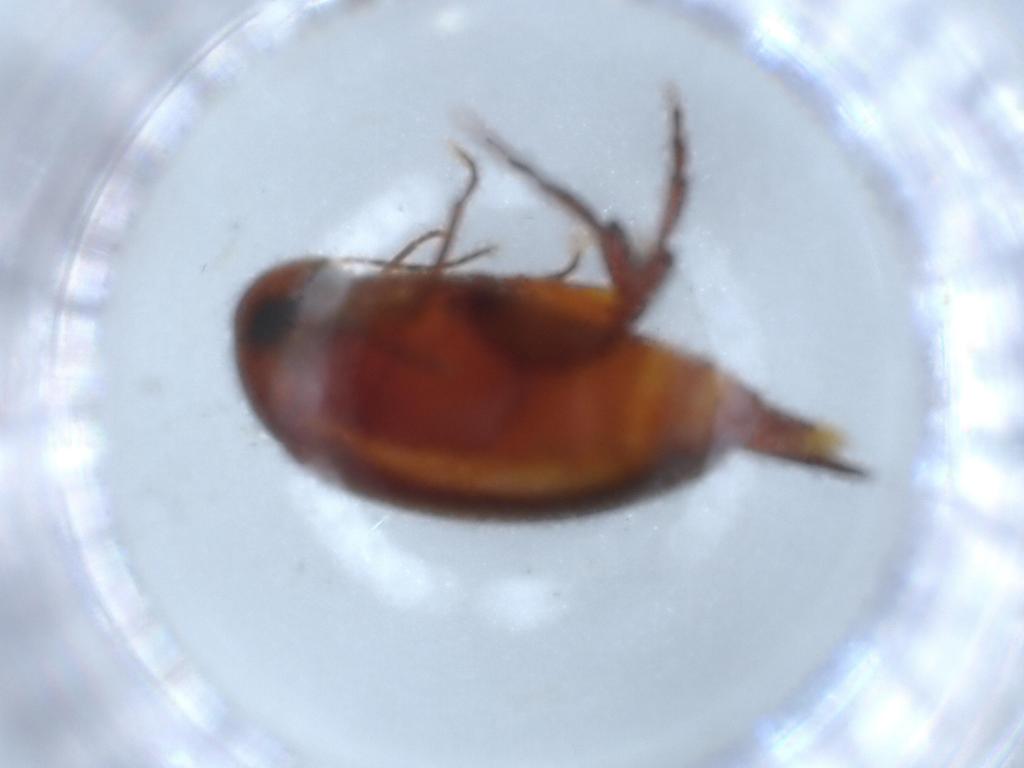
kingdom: Animalia
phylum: Arthropoda
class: Insecta
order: Coleoptera
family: Mordellidae
